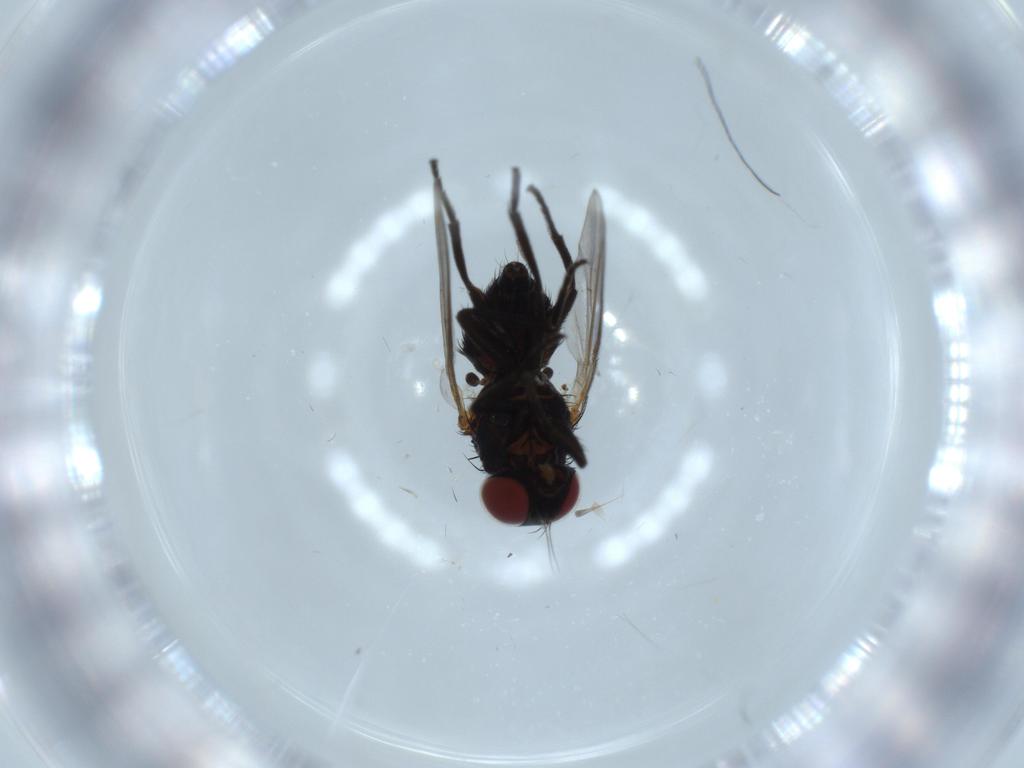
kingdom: Animalia
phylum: Arthropoda
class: Insecta
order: Diptera
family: Agromyzidae
